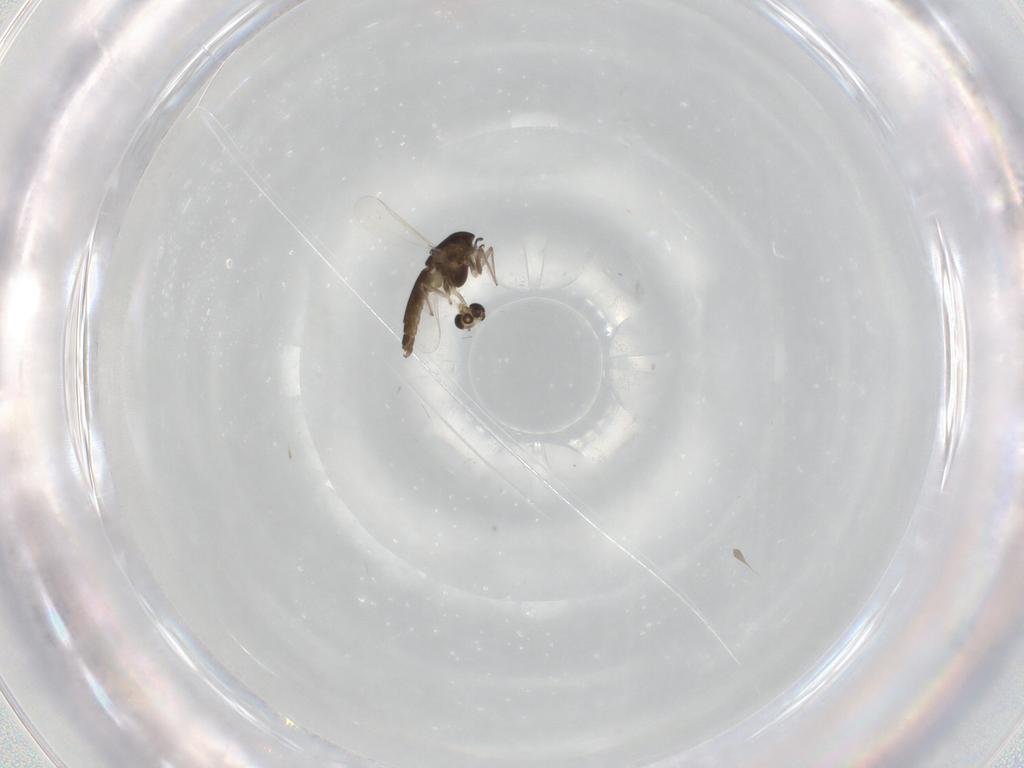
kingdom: Animalia
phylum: Arthropoda
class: Insecta
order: Diptera
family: Chironomidae
